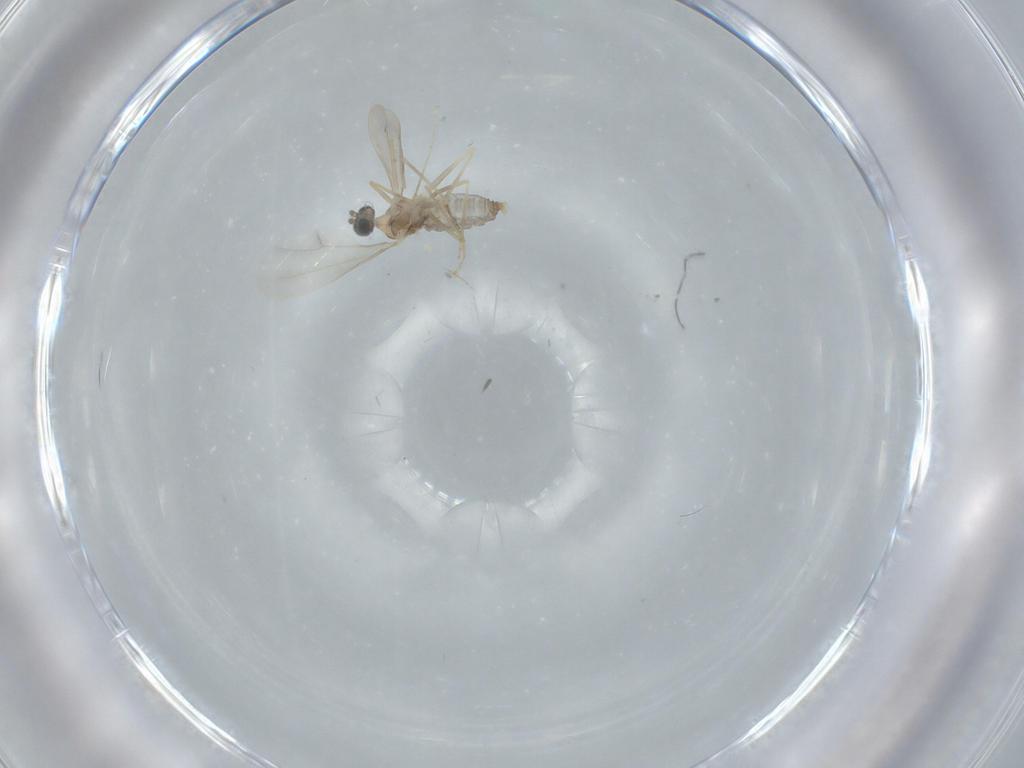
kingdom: Animalia
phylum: Arthropoda
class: Insecta
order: Diptera
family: Cecidomyiidae
